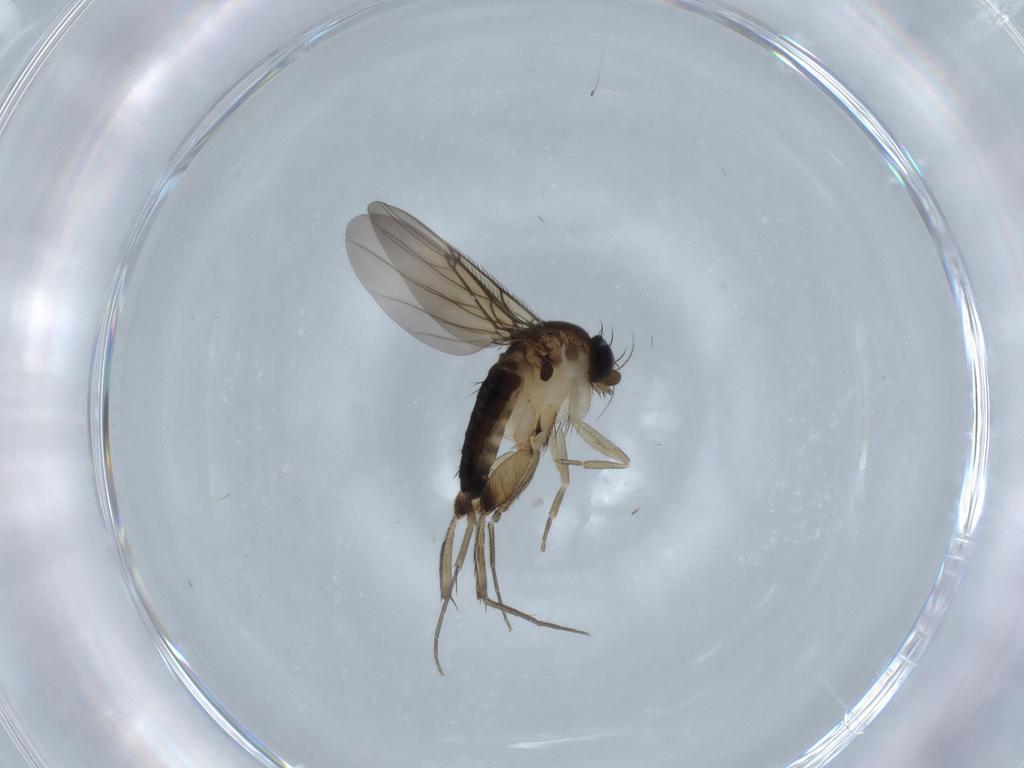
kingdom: Animalia
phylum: Arthropoda
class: Insecta
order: Diptera
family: Phoridae
